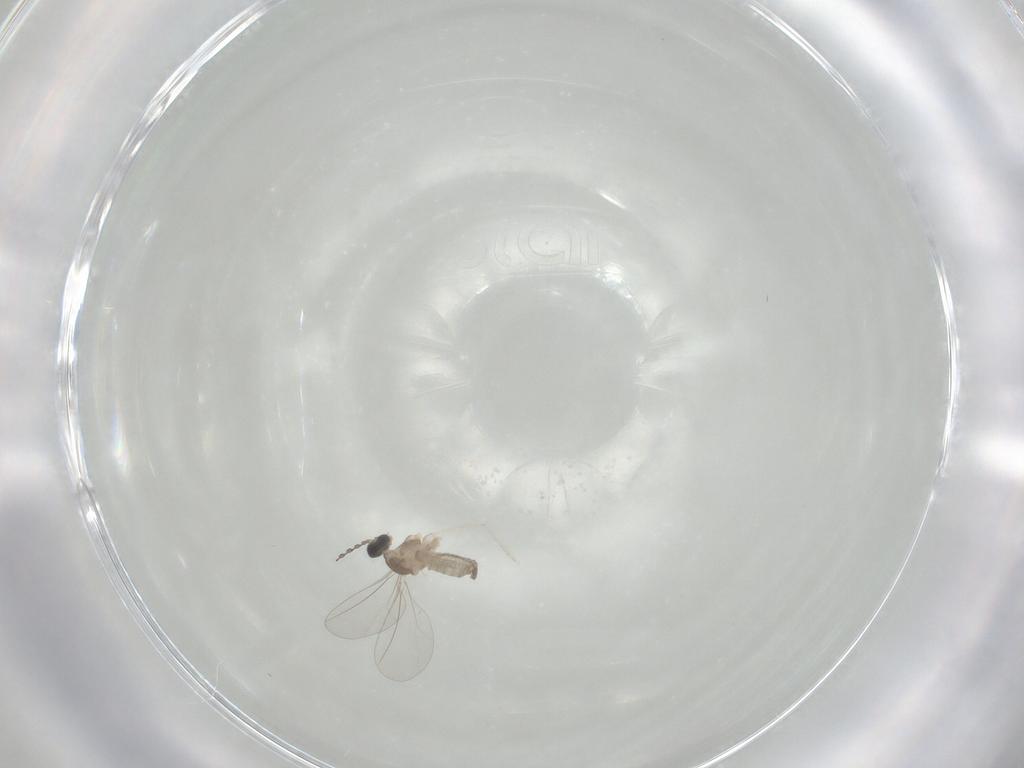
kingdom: Animalia
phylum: Arthropoda
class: Insecta
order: Diptera
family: Cecidomyiidae
